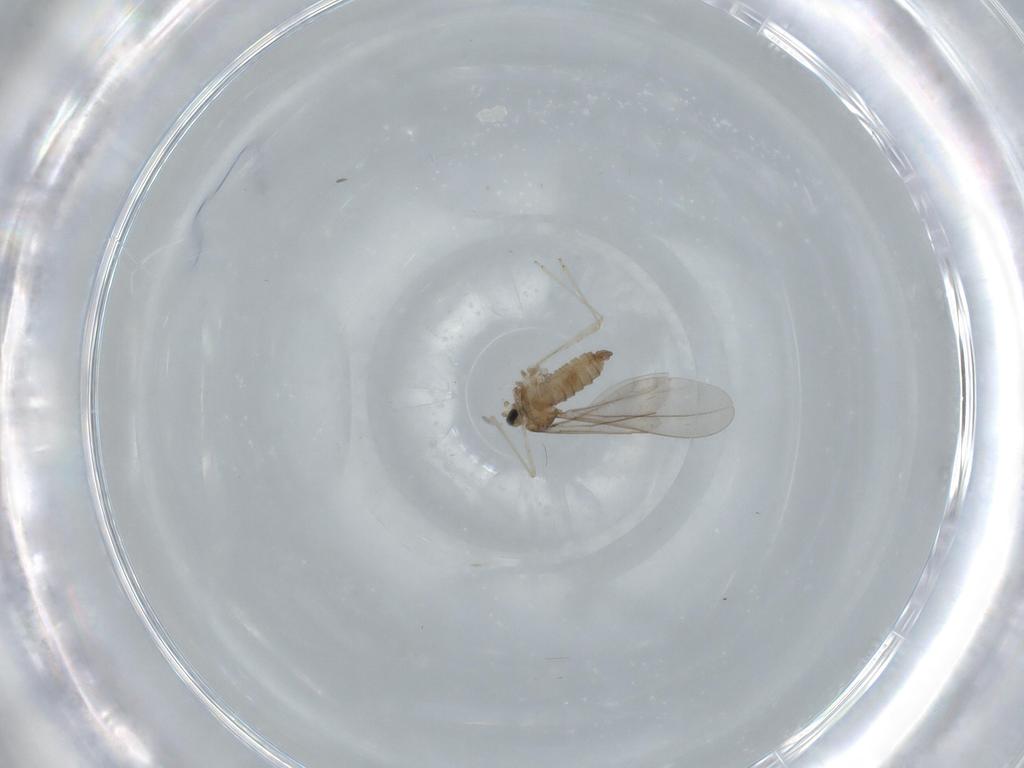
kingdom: Animalia
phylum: Arthropoda
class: Insecta
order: Diptera
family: Cecidomyiidae
